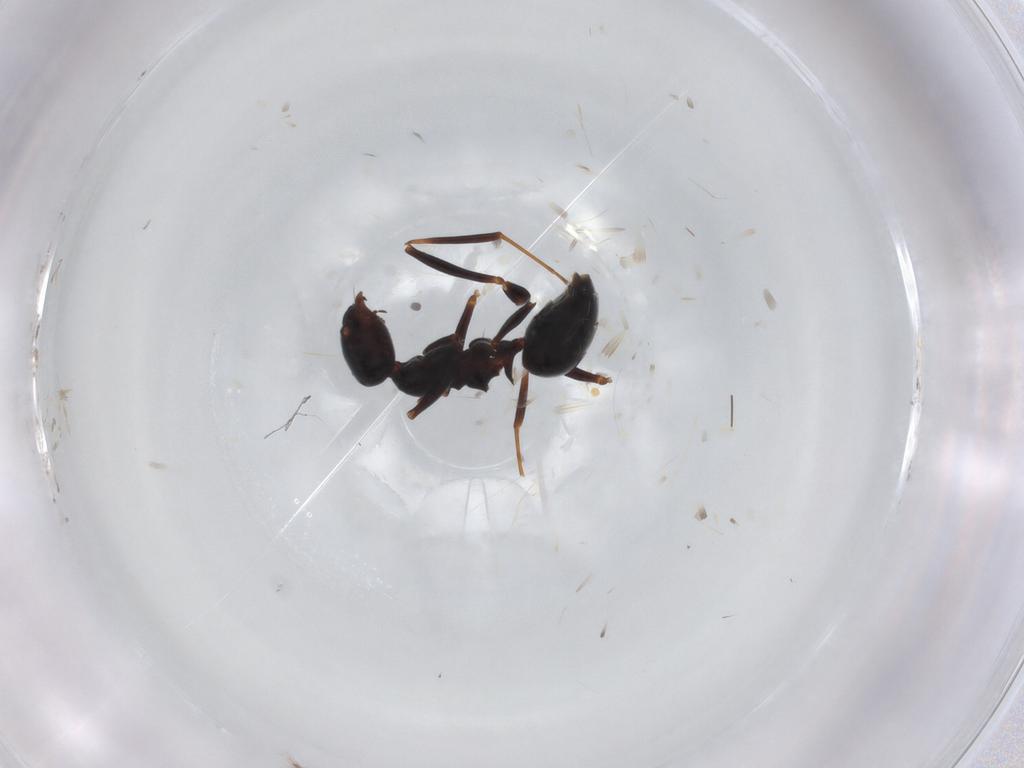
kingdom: Animalia
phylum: Arthropoda
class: Insecta
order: Hymenoptera
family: Formicidae
